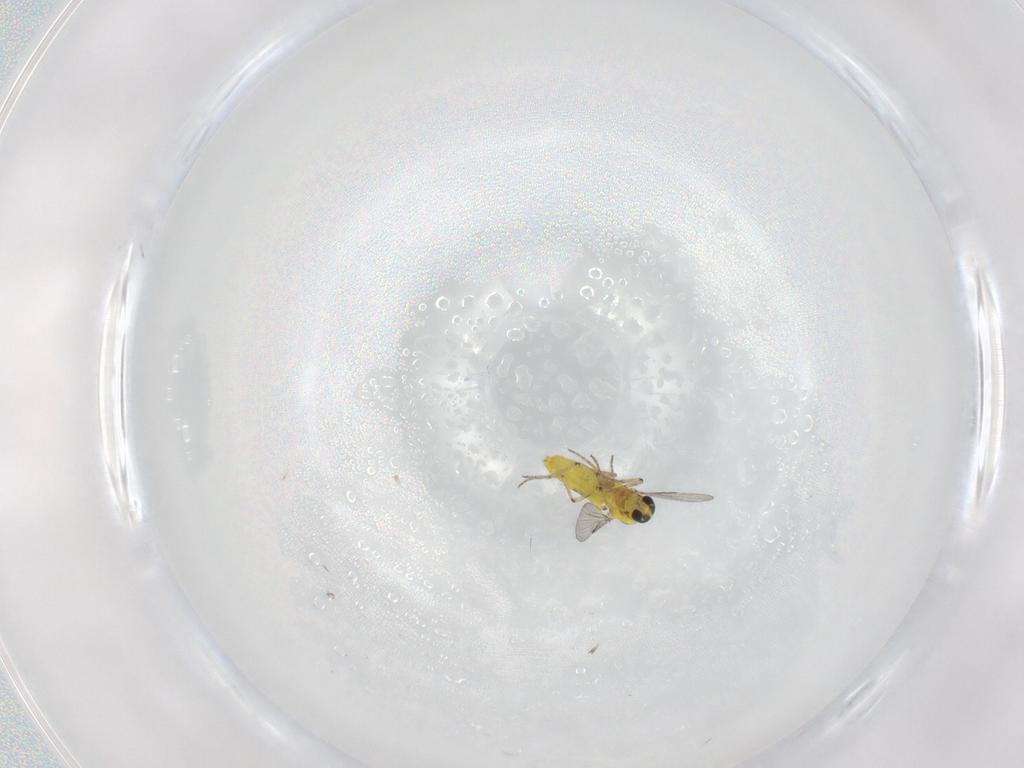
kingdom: Animalia
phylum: Arthropoda
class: Insecta
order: Diptera
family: Ceratopogonidae
